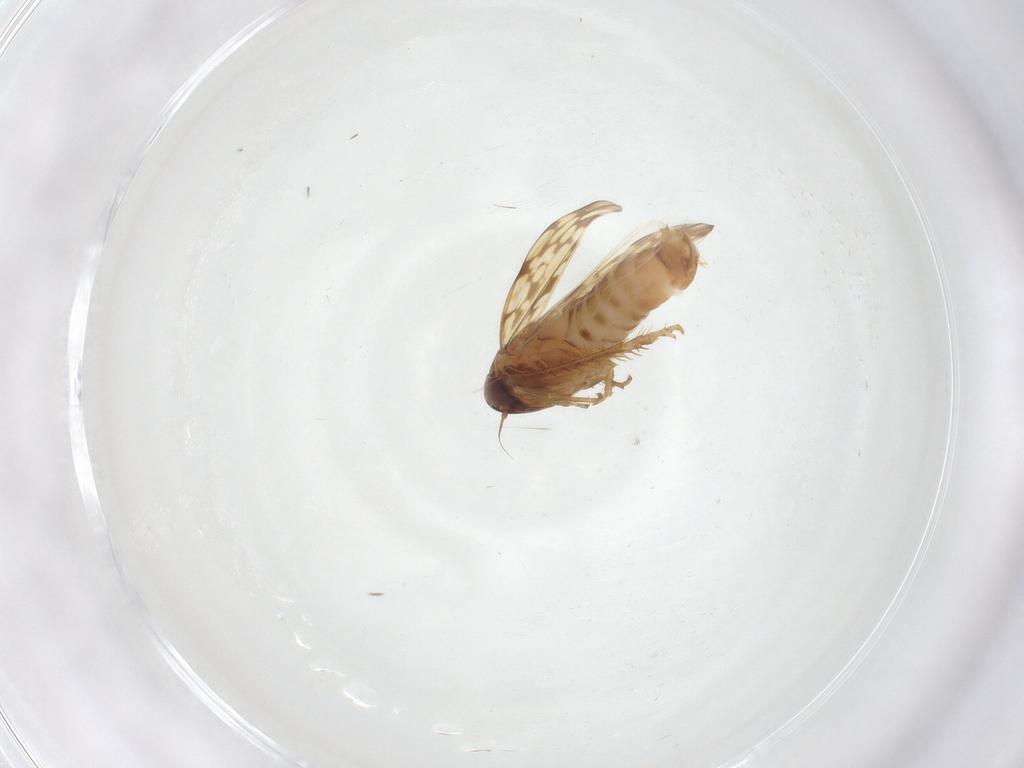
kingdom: Animalia
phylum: Arthropoda
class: Insecta
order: Hemiptera
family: Cicadellidae
